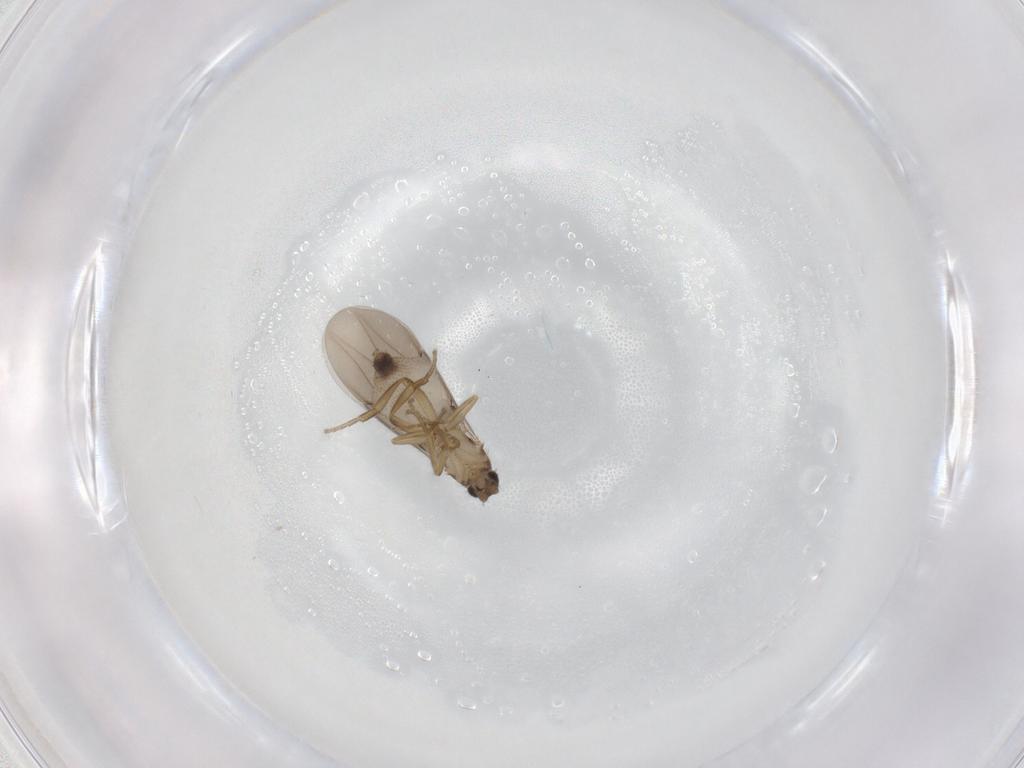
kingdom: Animalia
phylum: Arthropoda
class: Insecta
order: Diptera
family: Phoridae
